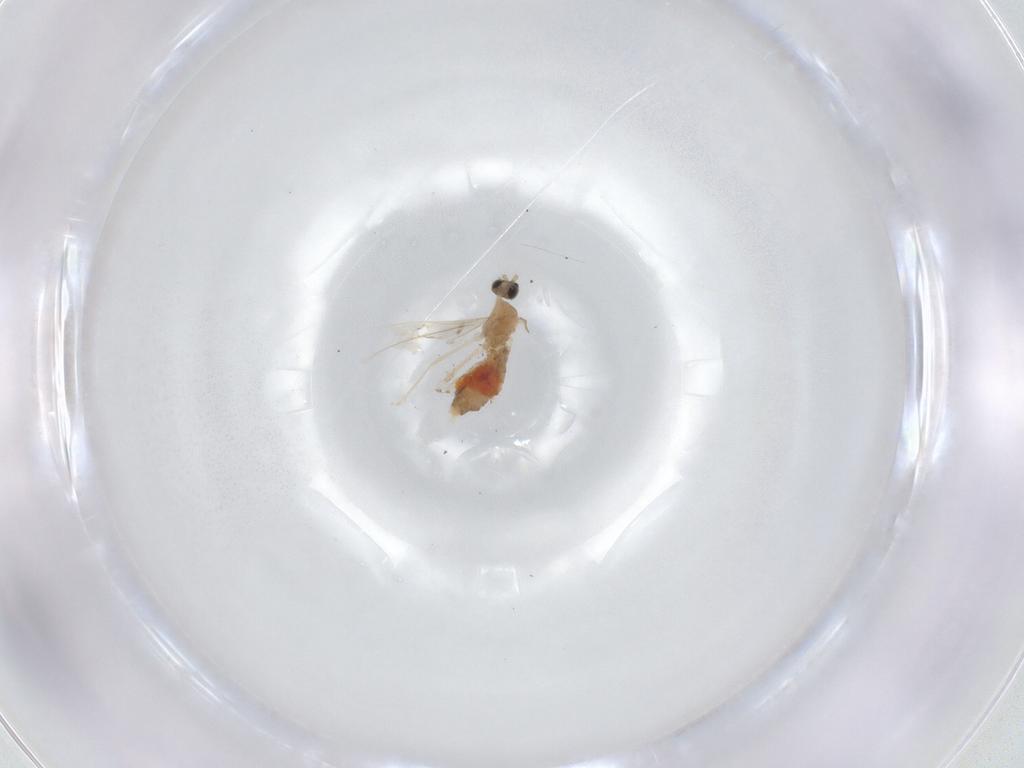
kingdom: Animalia
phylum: Arthropoda
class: Insecta
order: Diptera
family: Cecidomyiidae
